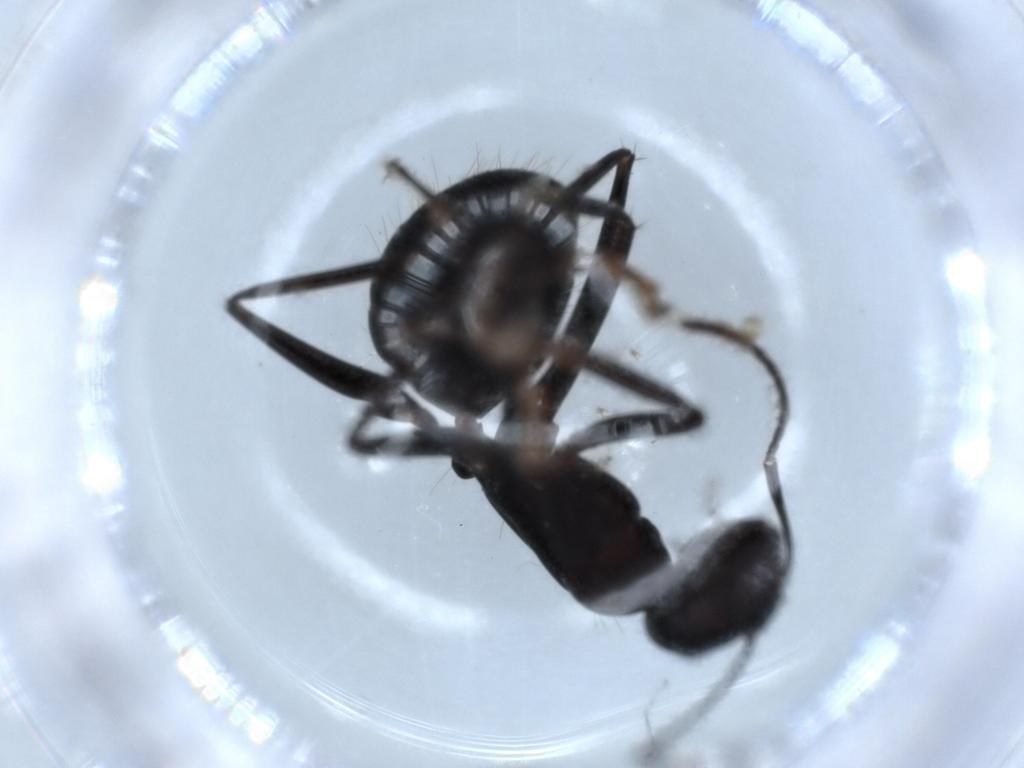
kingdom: Animalia
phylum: Arthropoda
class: Insecta
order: Hymenoptera
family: Formicidae
